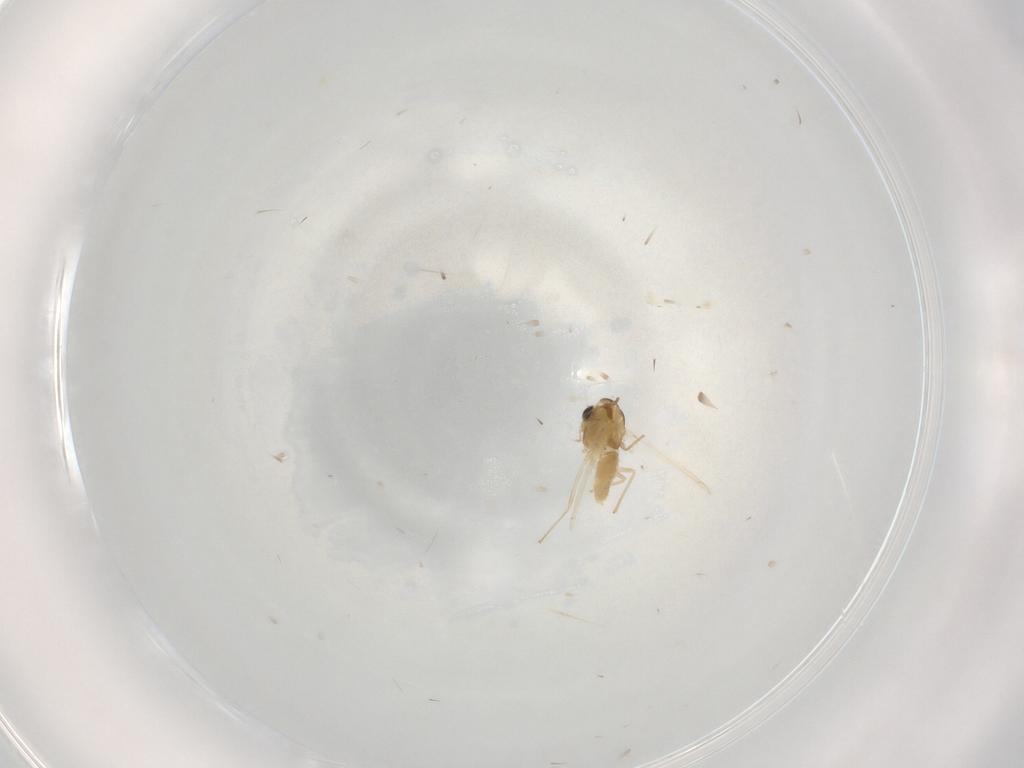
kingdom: Animalia
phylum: Arthropoda
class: Insecta
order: Diptera
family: Chironomidae
